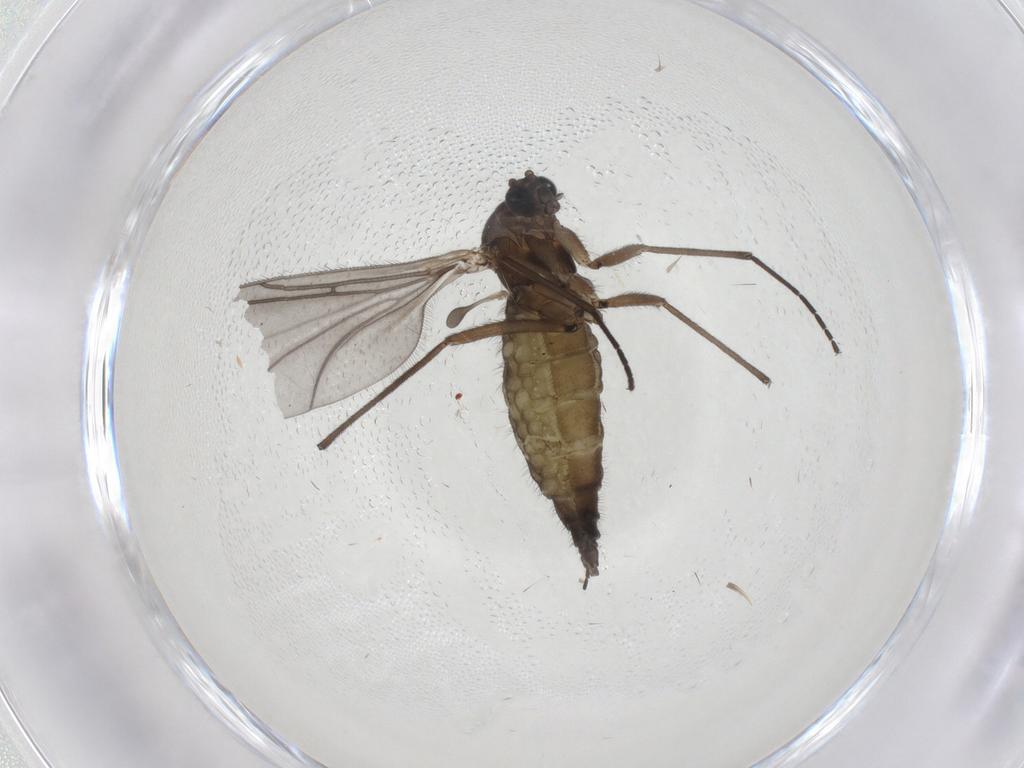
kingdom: Animalia
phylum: Arthropoda
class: Insecta
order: Diptera
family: Sciaridae
